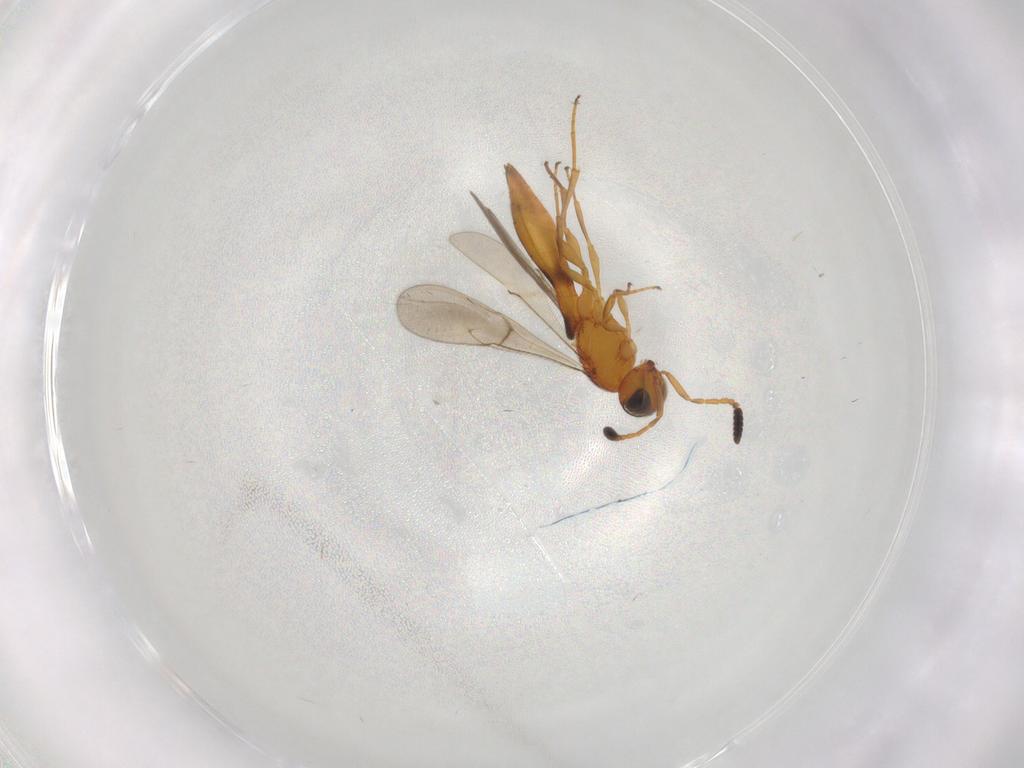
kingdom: Animalia
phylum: Arthropoda
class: Insecta
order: Hymenoptera
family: Scelionidae
